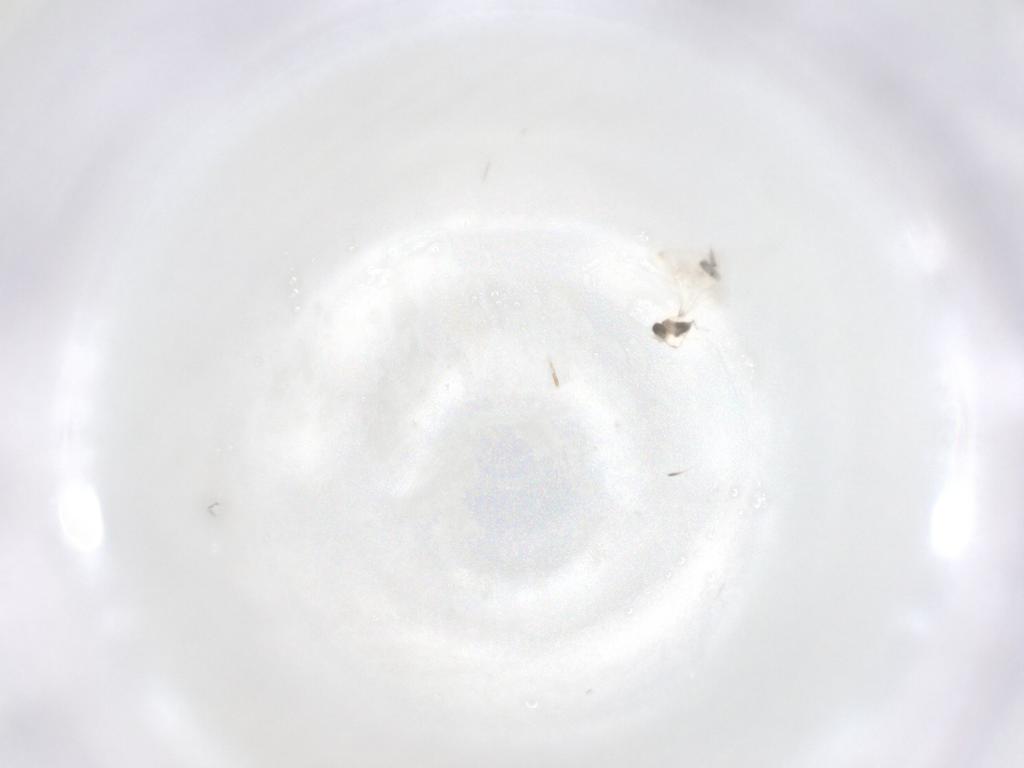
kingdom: Animalia
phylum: Arthropoda
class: Insecta
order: Hymenoptera
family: Mymaridae
